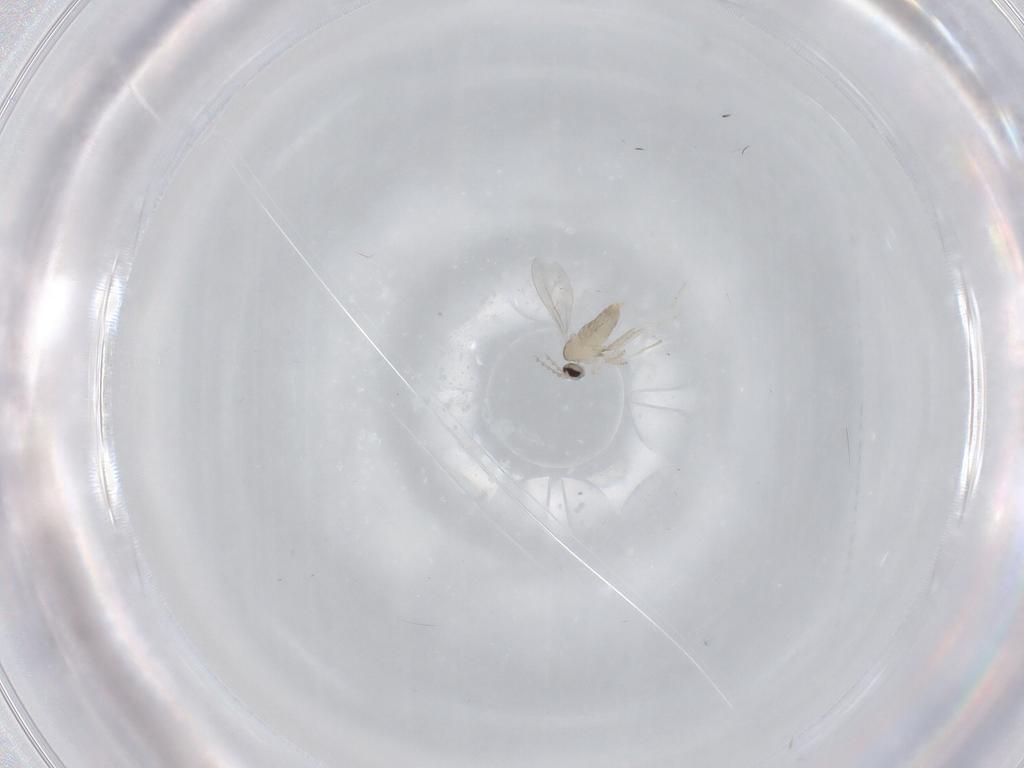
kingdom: Animalia
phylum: Arthropoda
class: Insecta
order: Diptera
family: Cecidomyiidae
